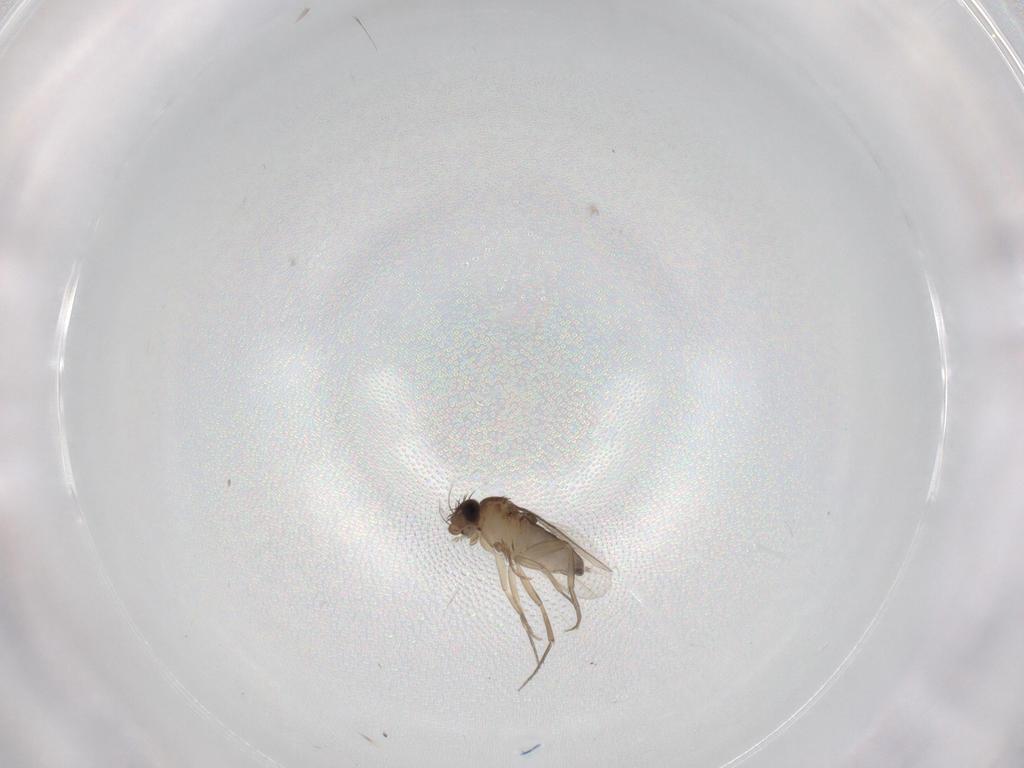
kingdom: Animalia
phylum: Arthropoda
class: Insecta
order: Diptera
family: Phoridae
